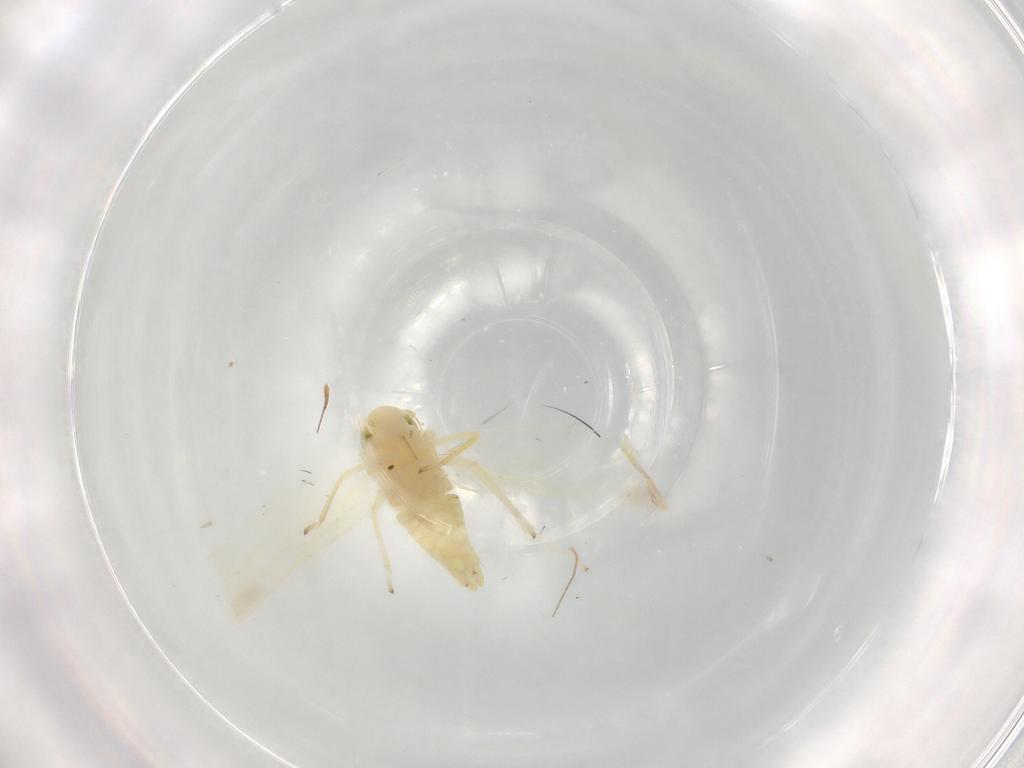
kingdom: Animalia
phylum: Arthropoda
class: Insecta
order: Hemiptera
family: Cicadellidae
